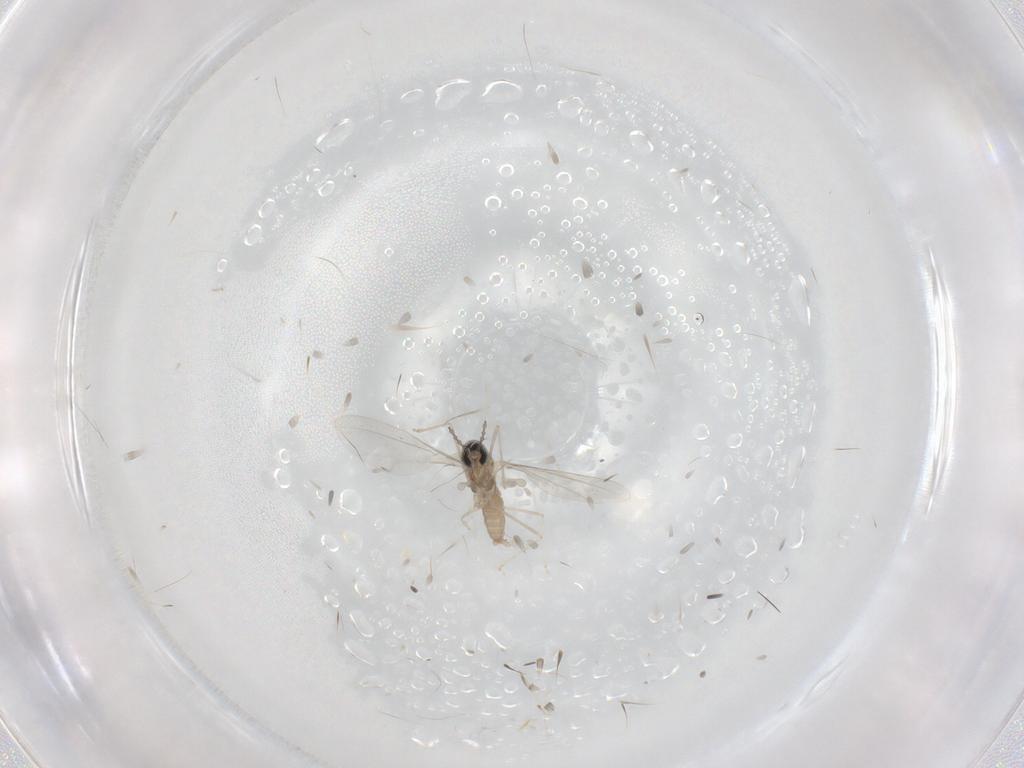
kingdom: Animalia
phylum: Arthropoda
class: Insecta
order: Diptera
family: Cecidomyiidae
